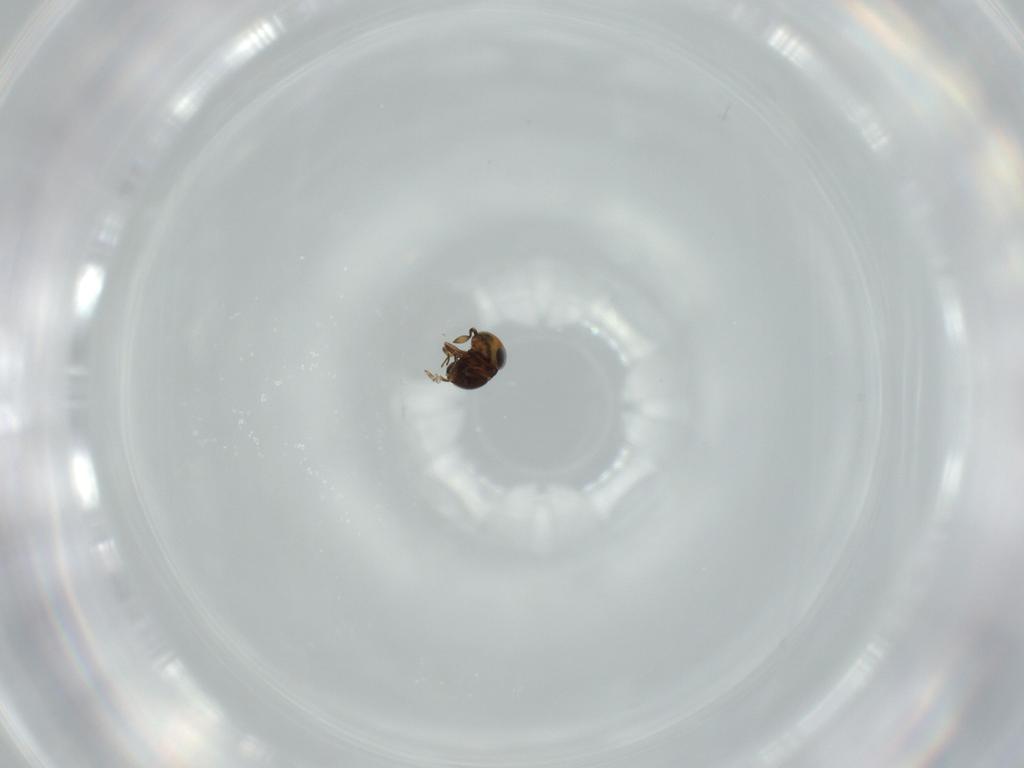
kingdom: Animalia
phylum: Arthropoda
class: Insecta
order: Hymenoptera
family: Scelionidae
